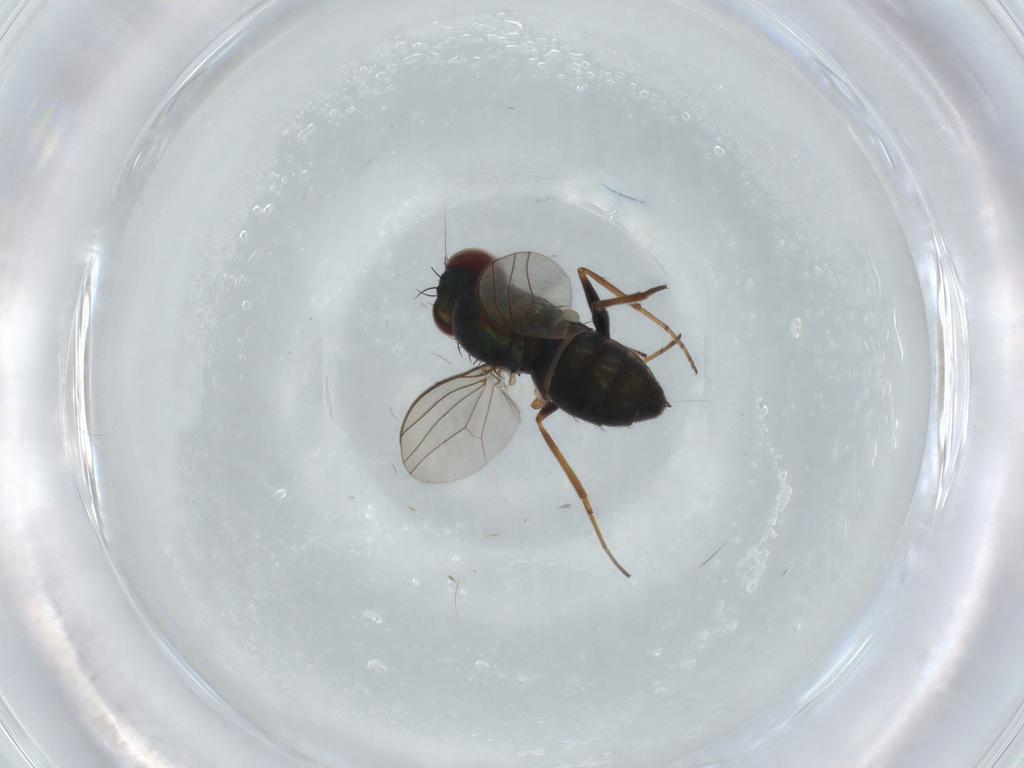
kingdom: Animalia
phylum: Arthropoda
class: Insecta
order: Diptera
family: Dolichopodidae
